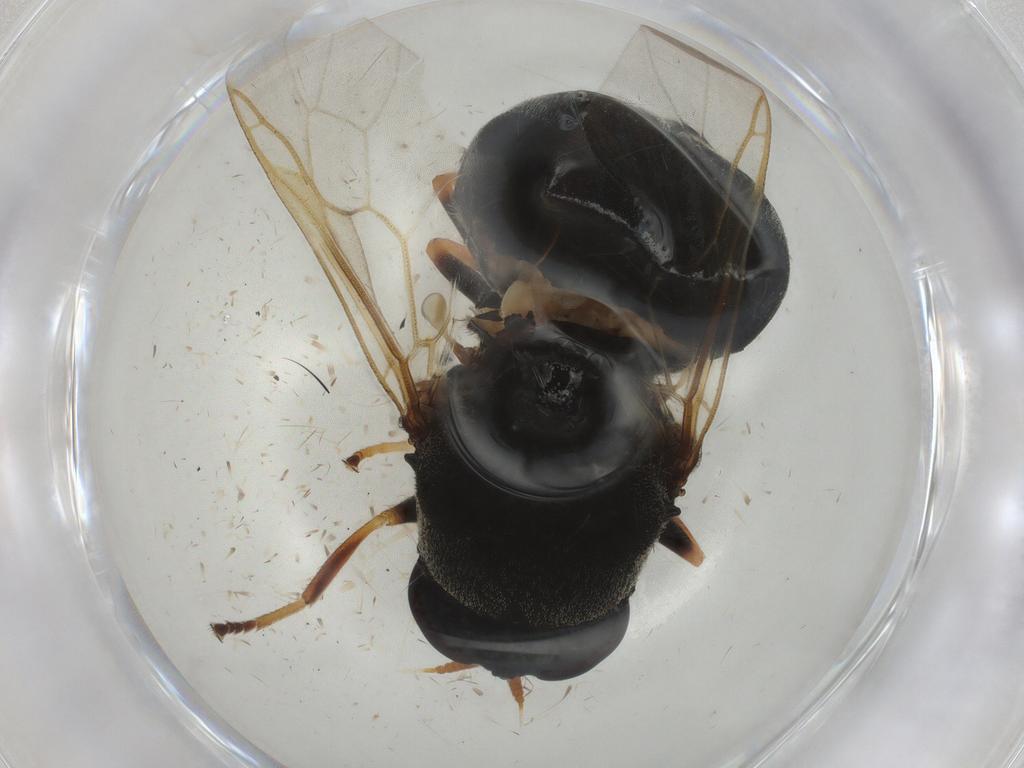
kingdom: Animalia
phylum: Arthropoda
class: Insecta
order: Diptera
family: Stratiomyidae
